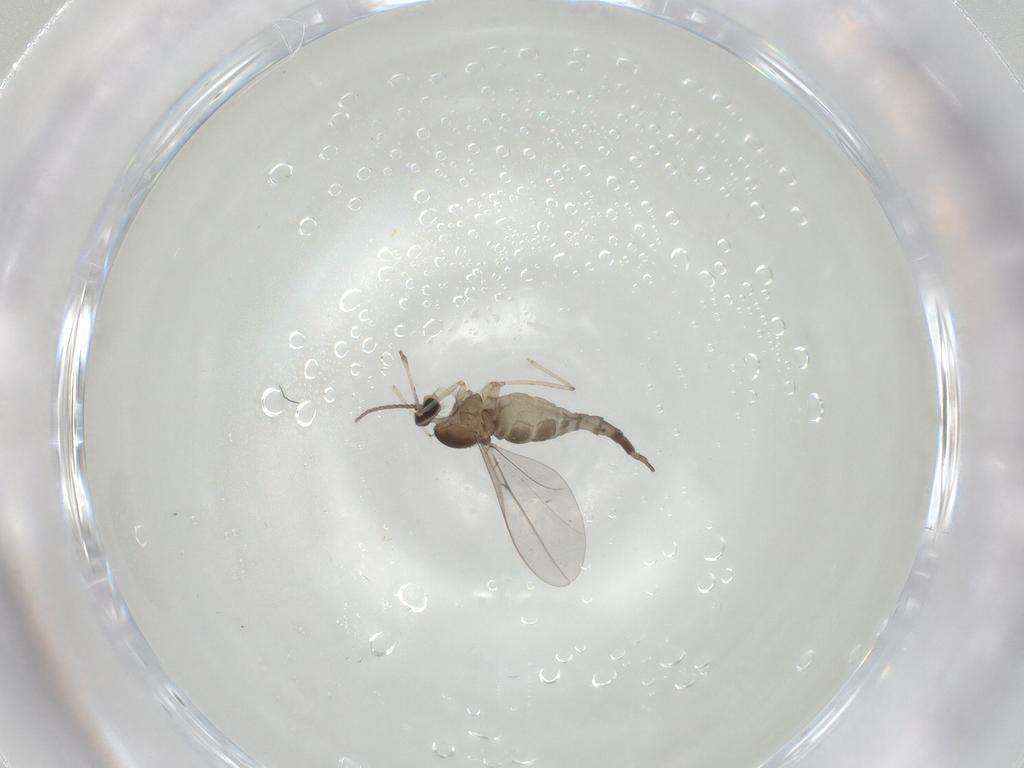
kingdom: Animalia
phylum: Arthropoda
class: Insecta
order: Diptera
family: Cecidomyiidae
